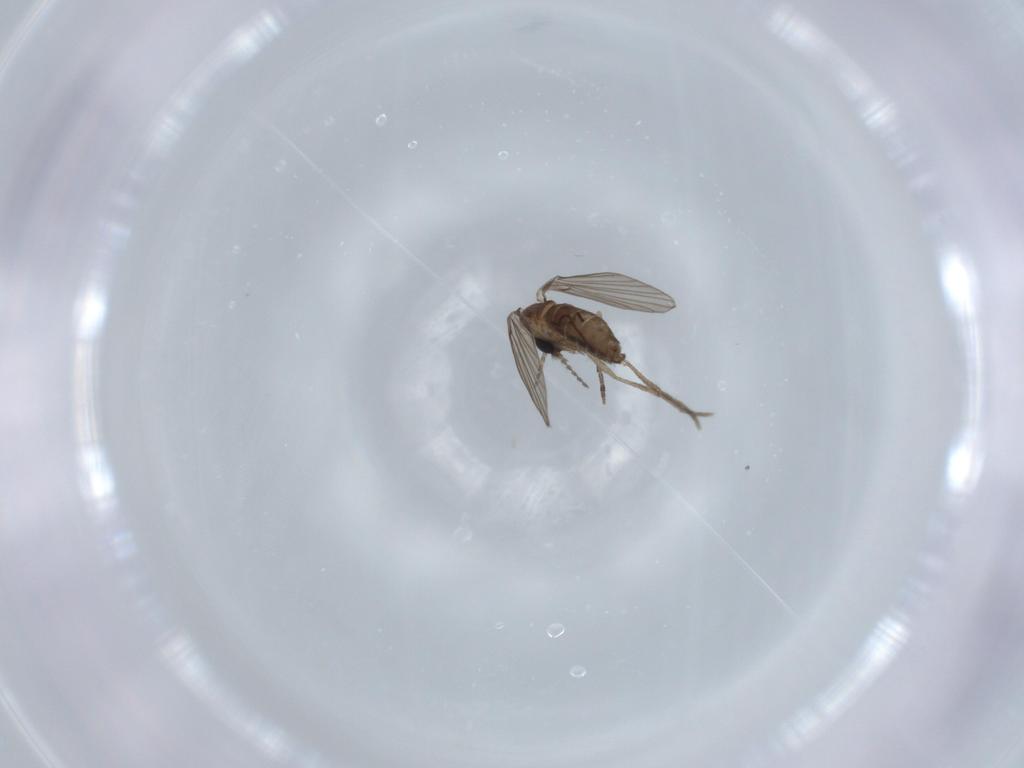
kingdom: Animalia
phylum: Arthropoda
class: Insecta
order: Diptera
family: Psychodidae
